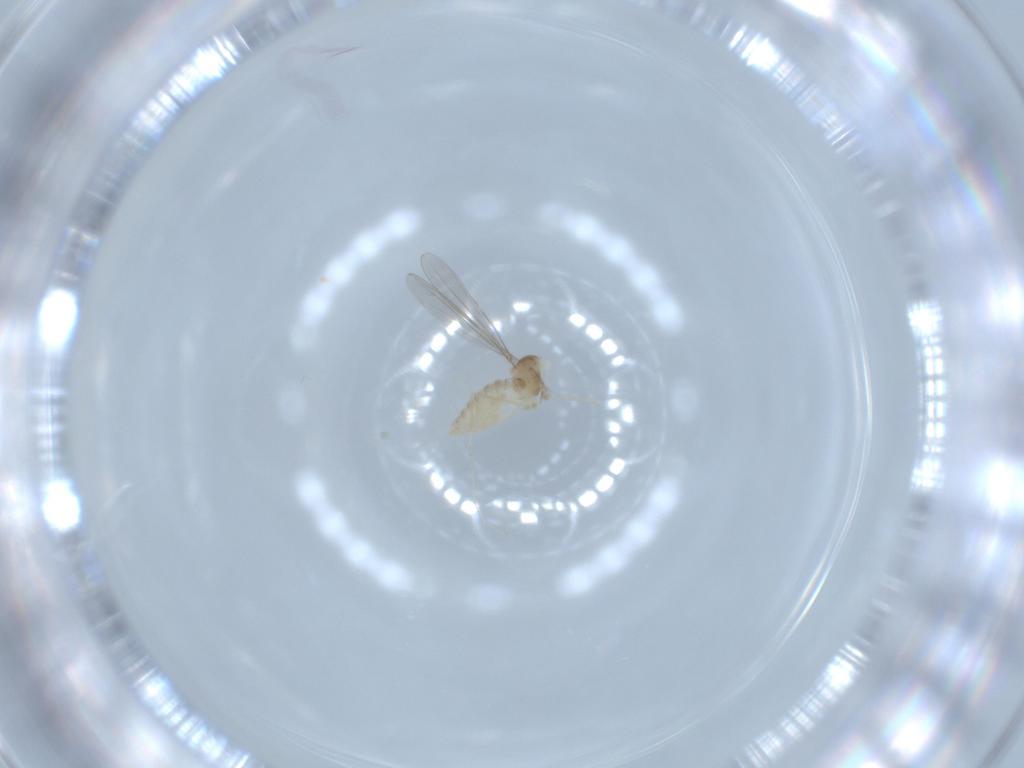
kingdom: Animalia
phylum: Arthropoda
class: Insecta
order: Diptera
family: Cecidomyiidae
